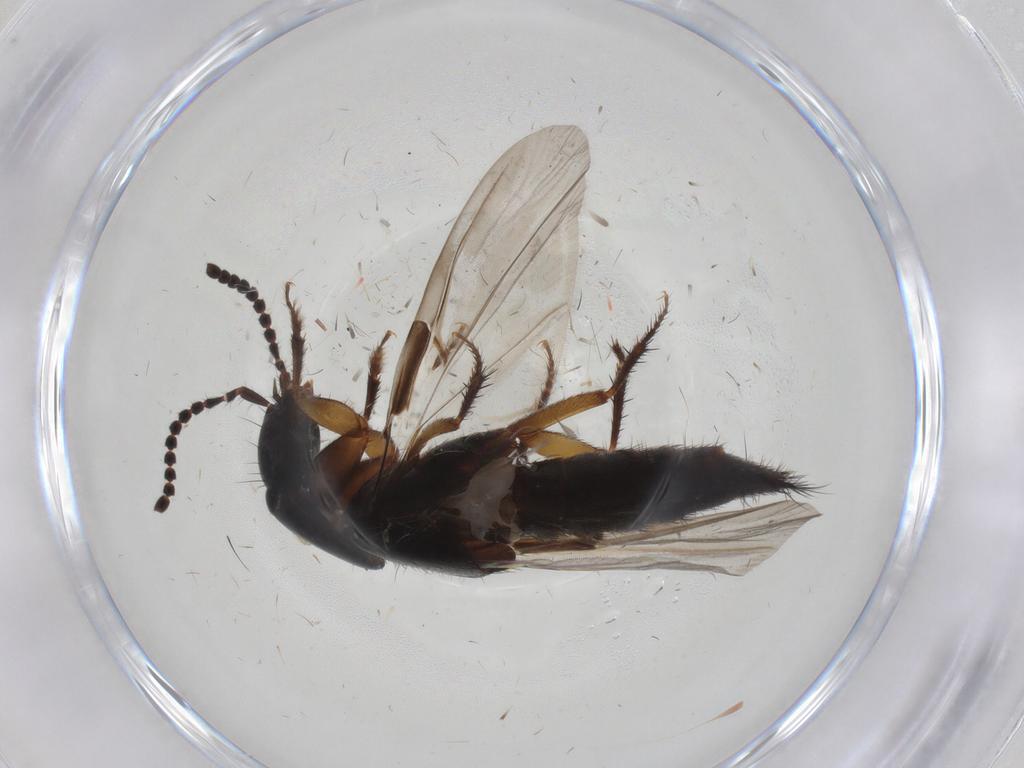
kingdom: Animalia
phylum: Arthropoda
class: Insecta
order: Coleoptera
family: Staphylinidae
